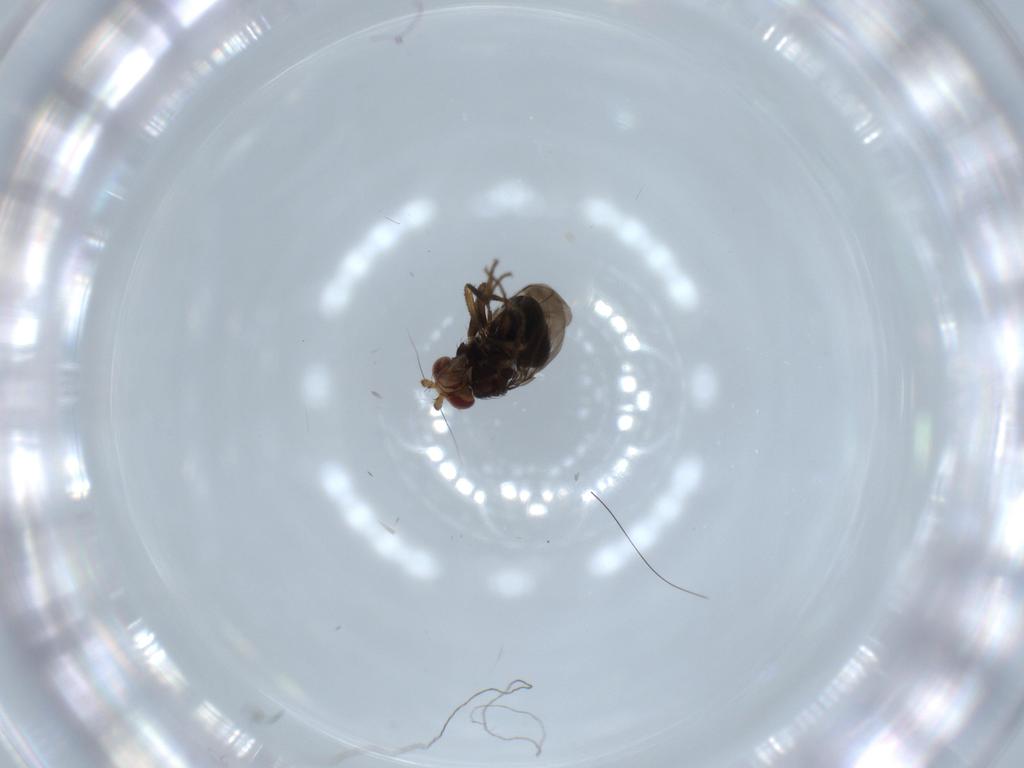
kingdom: Animalia
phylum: Arthropoda
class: Insecta
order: Diptera
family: Sphaeroceridae
